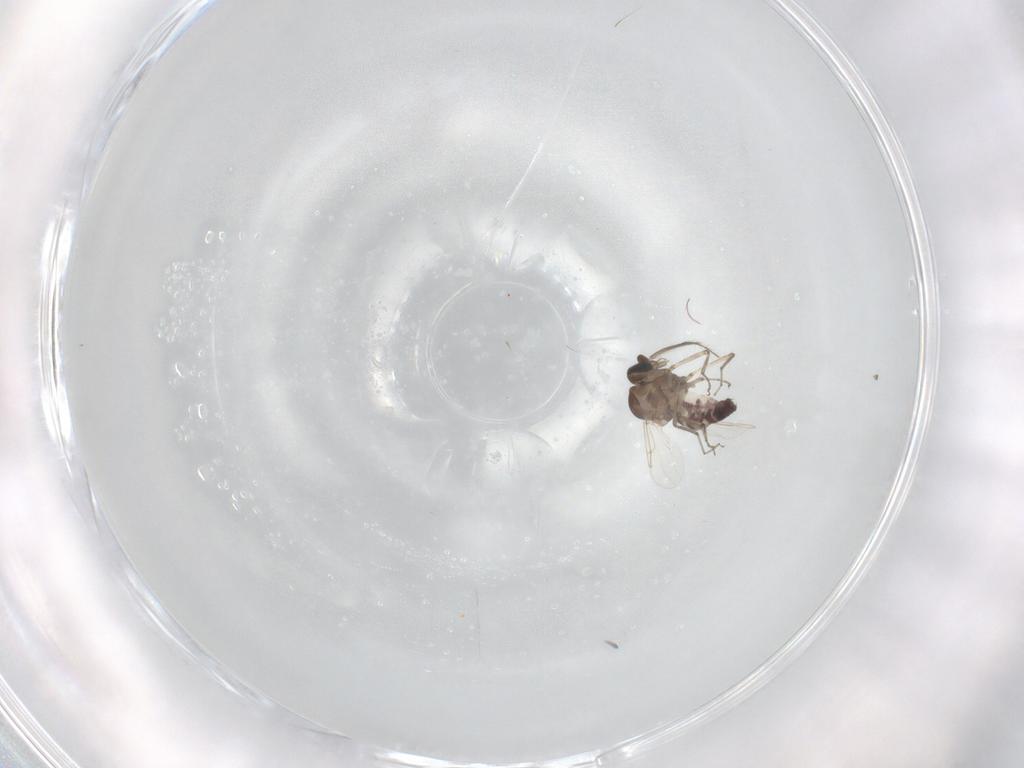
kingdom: Animalia
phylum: Arthropoda
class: Insecta
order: Diptera
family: Ceratopogonidae
